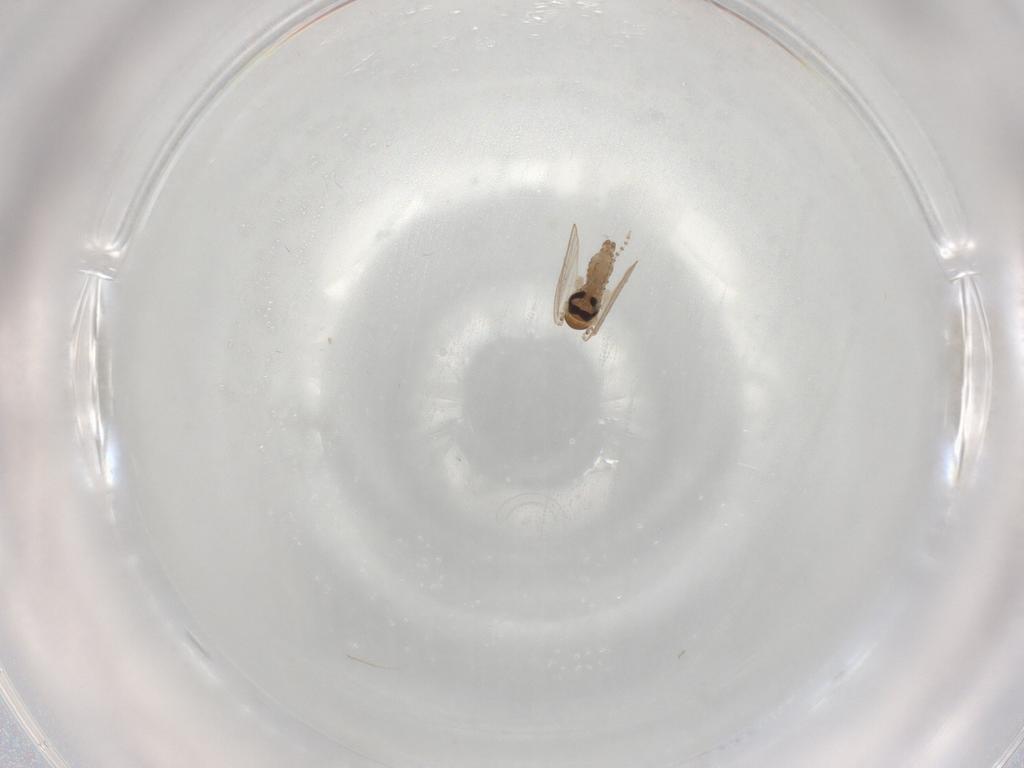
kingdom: Animalia
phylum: Arthropoda
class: Insecta
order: Diptera
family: Psychodidae
